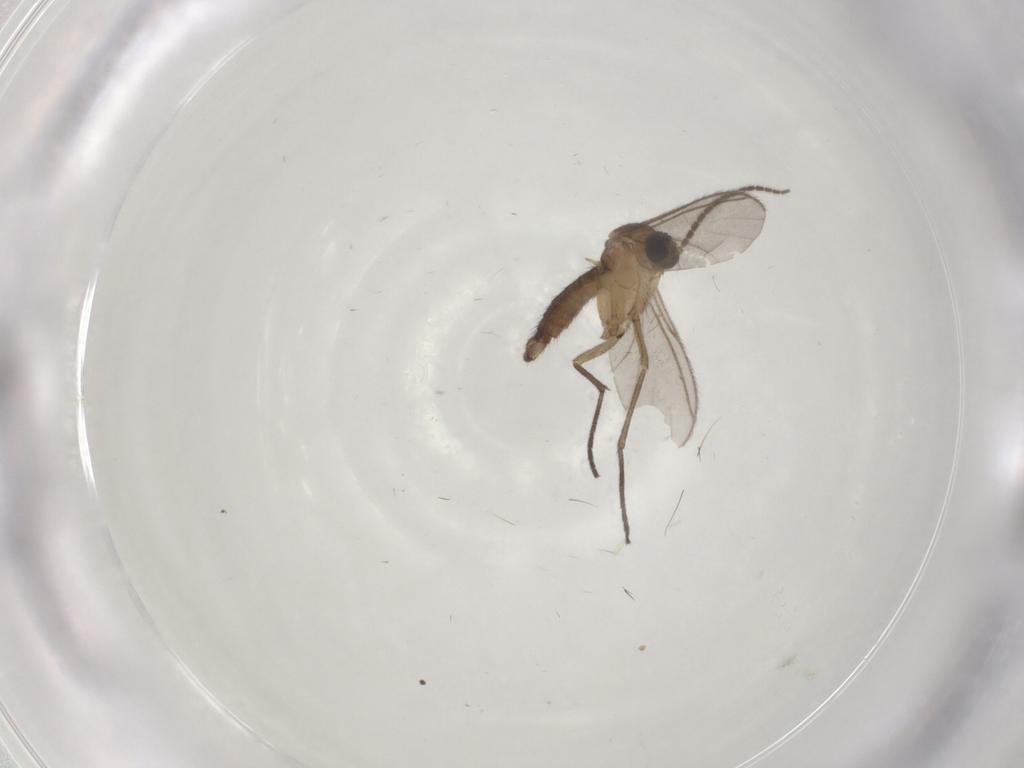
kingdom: Animalia
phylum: Arthropoda
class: Insecta
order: Diptera
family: Sciaridae
